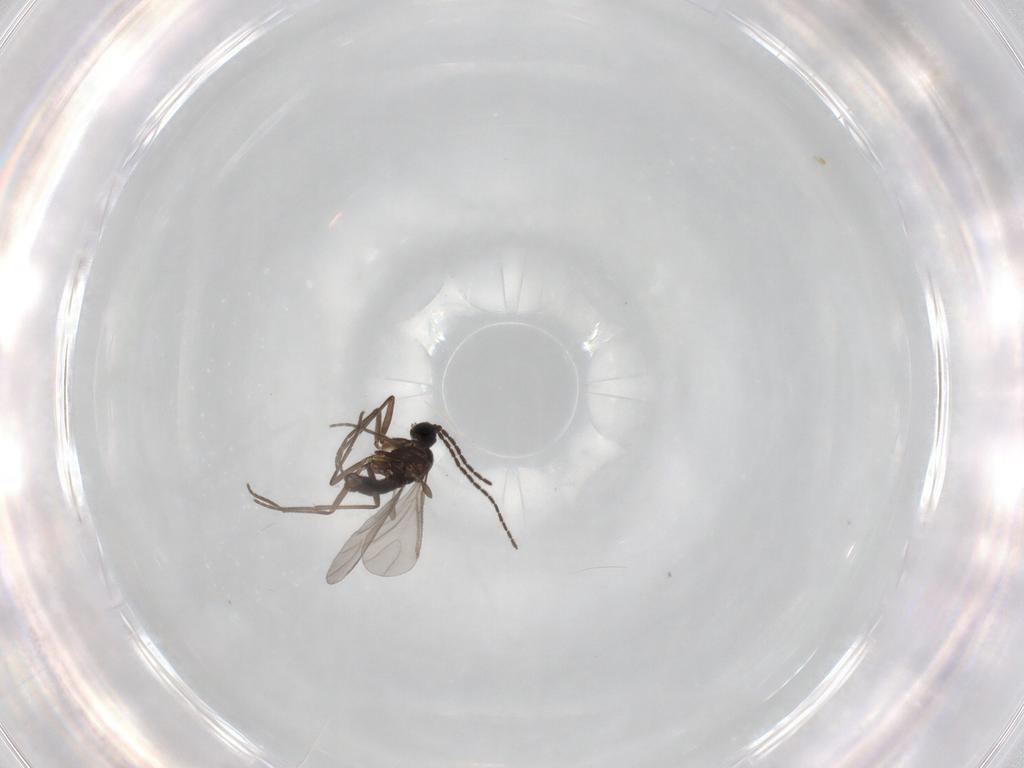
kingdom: Animalia
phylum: Arthropoda
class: Insecta
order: Diptera
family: Sciaridae
